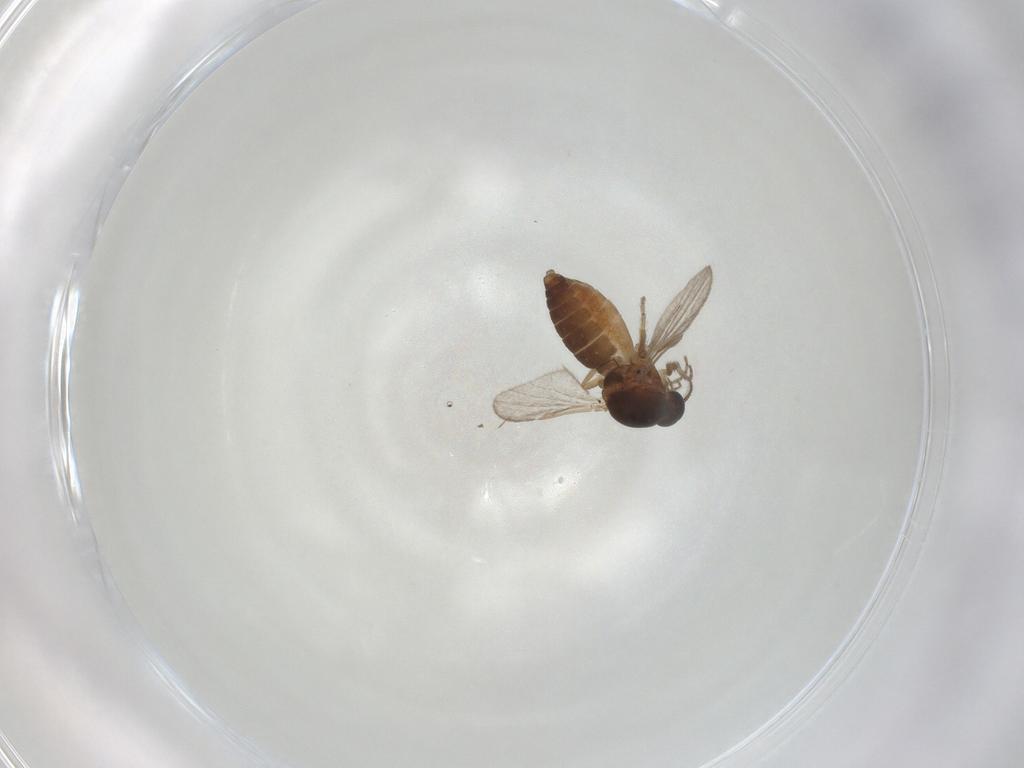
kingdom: Animalia
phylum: Arthropoda
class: Insecta
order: Diptera
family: Ceratopogonidae
